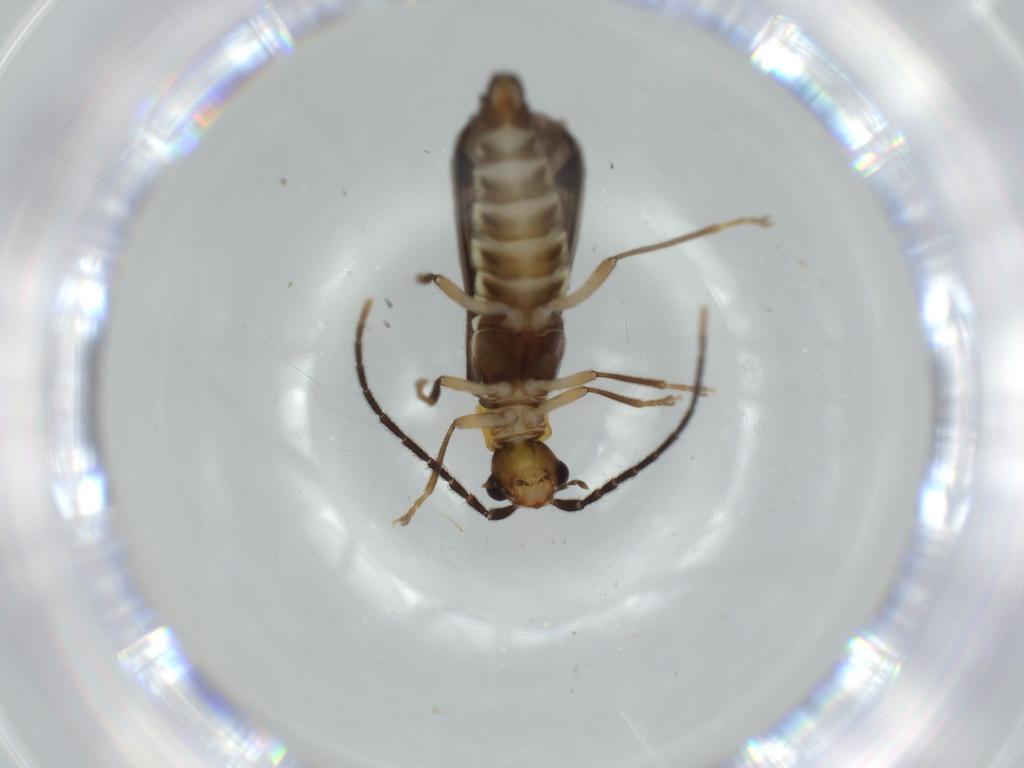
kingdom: Animalia
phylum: Arthropoda
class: Insecta
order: Coleoptera
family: Cantharidae
